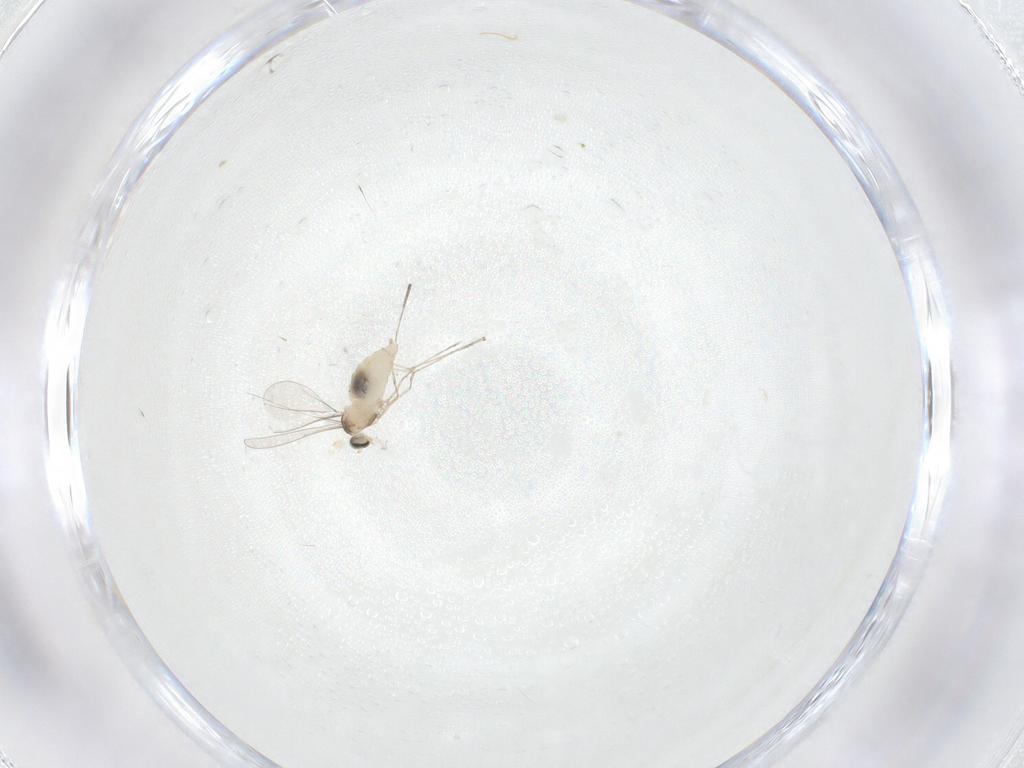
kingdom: Animalia
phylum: Arthropoda
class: Insecta
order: Diptera
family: Cecidomyiidae
